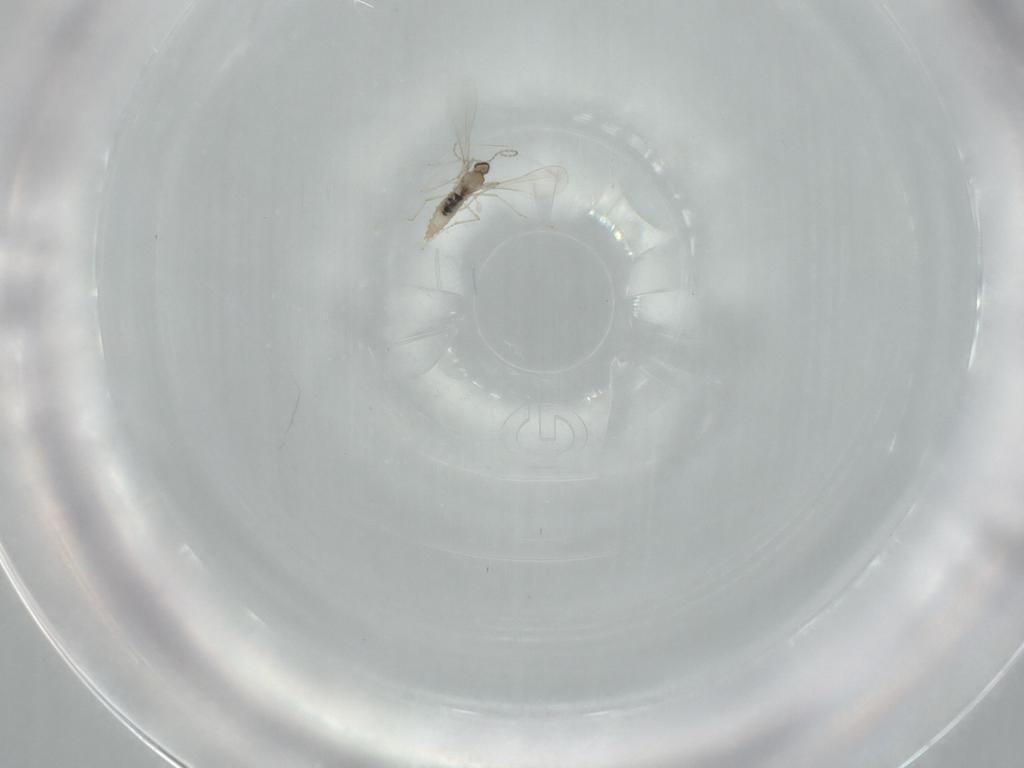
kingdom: Animalia
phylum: Arthropoda
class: Insecta
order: Diptera
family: Cecidomyiidae
